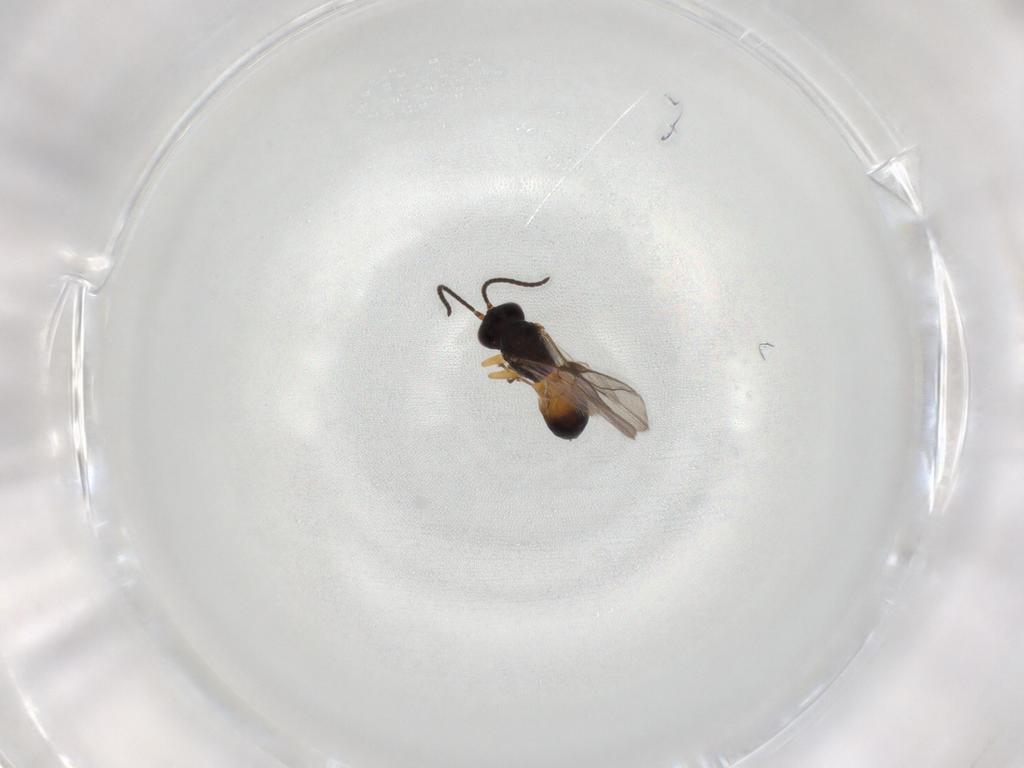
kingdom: Animalia
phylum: Arthropoda
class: Insecta
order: Hymenoptera
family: Braconidae
